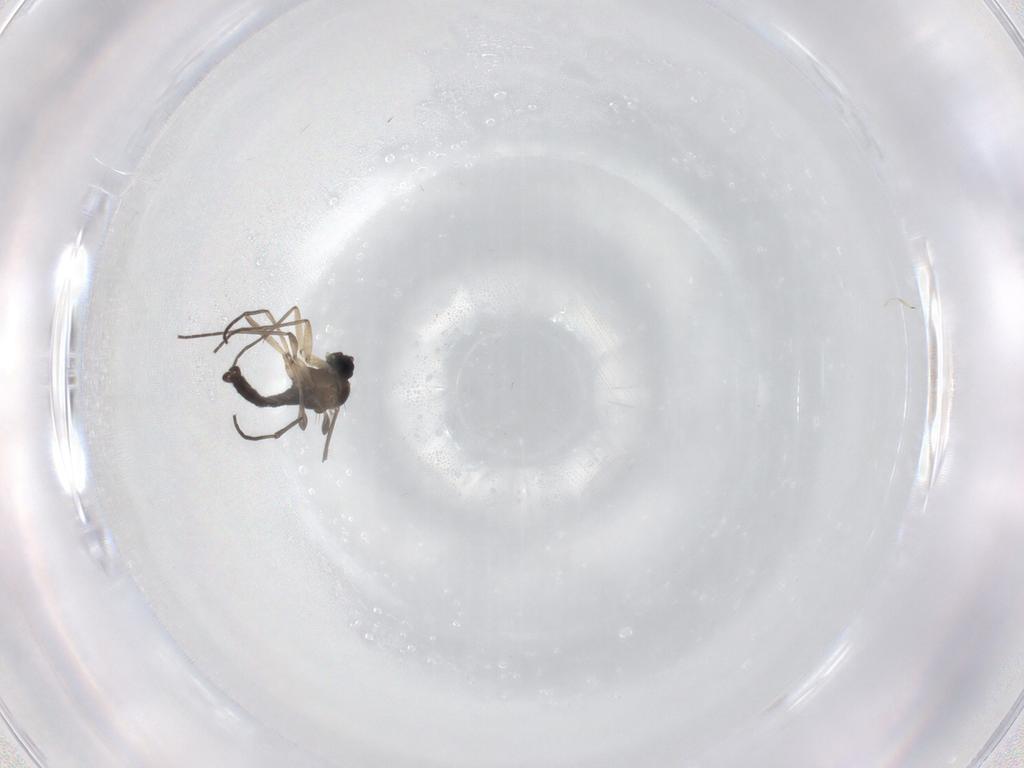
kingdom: Animalia
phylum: Arthropoda
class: Insecta
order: Diptera
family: Sciaridae
